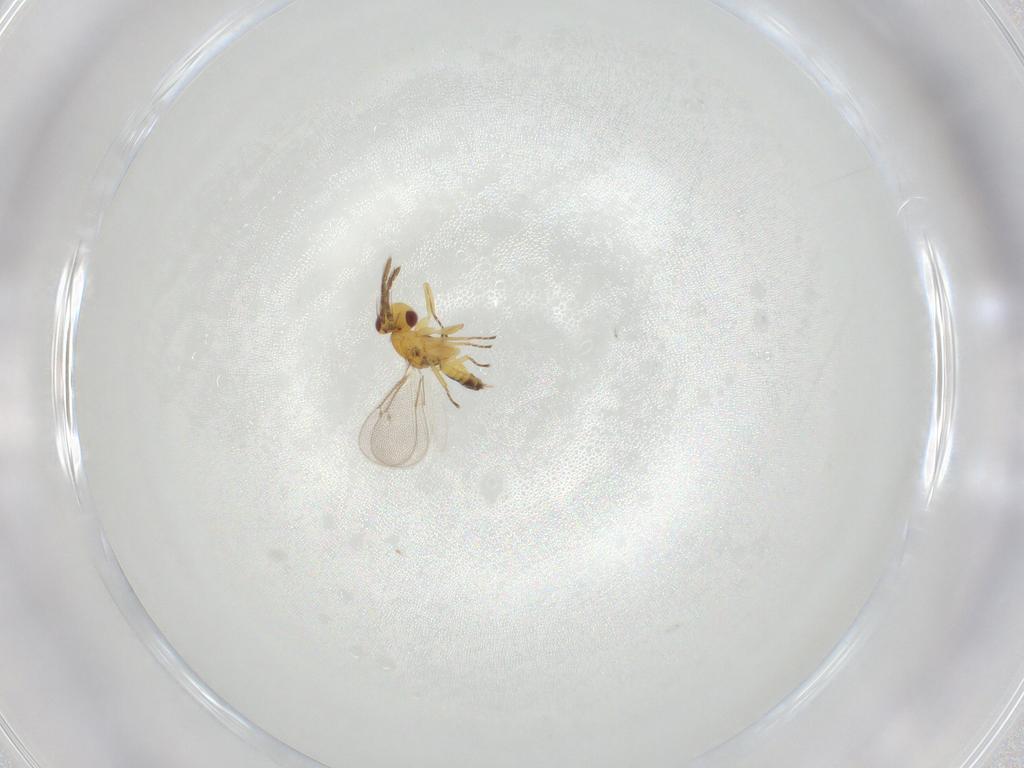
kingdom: Animalia
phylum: Arthropoda
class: Insecta
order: Hymenoptera
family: Eulophidae
